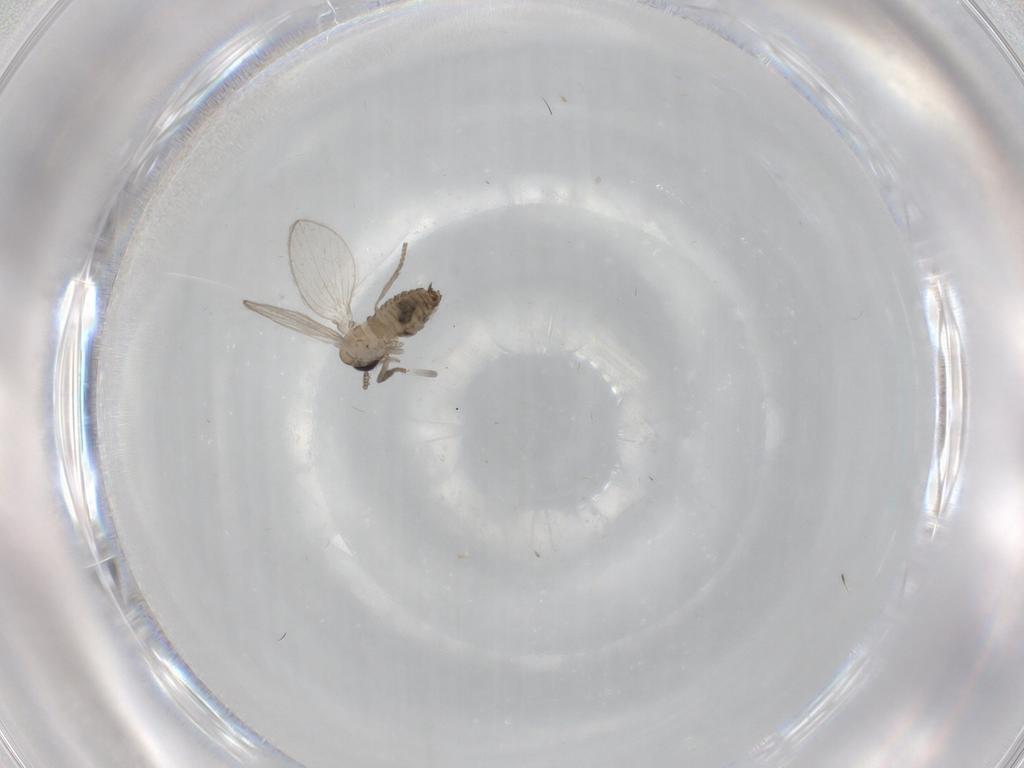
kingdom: Animalia
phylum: Arthropoda
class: Insecta
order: Diptera
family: Psychodidae
